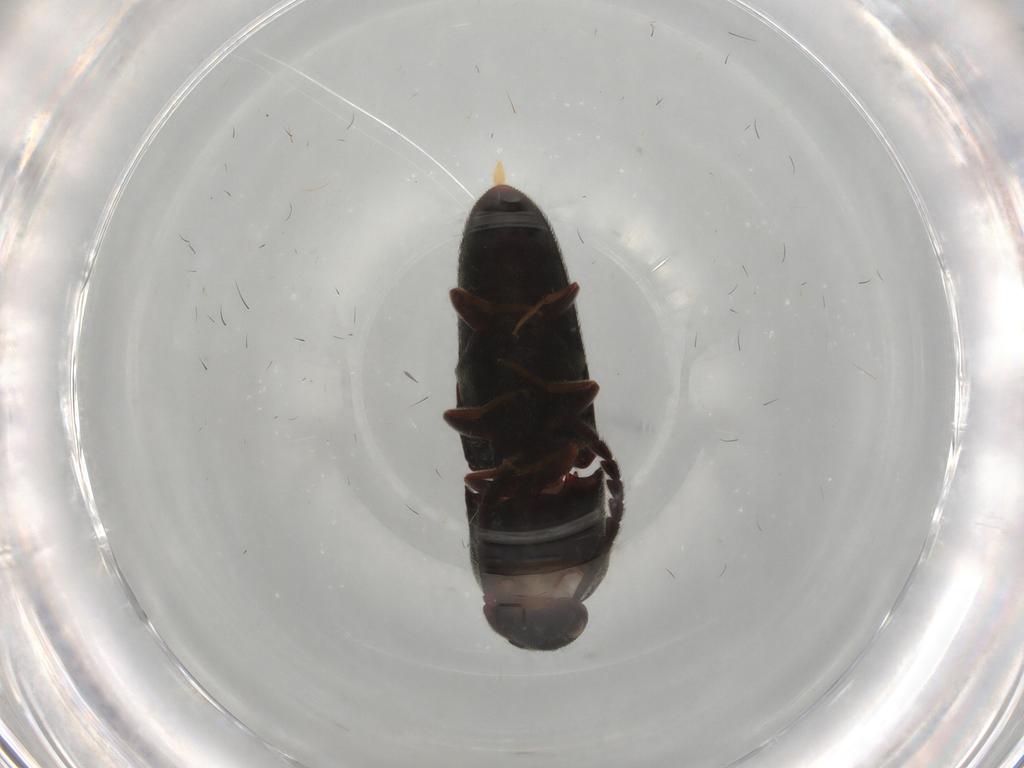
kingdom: Animalia
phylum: Arthropoda
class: Insecta
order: Coleoptera
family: Eucnemidae
